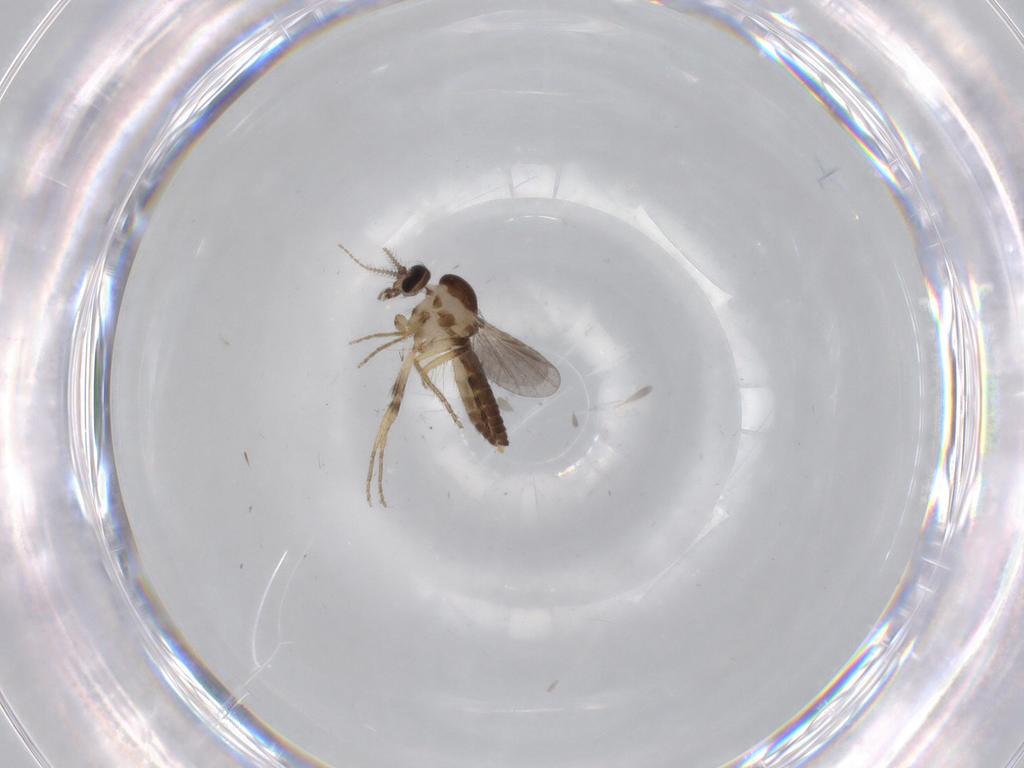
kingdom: Animalia
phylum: Arthropoda
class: Insecta
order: Diptera
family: Ceratopogonidae
